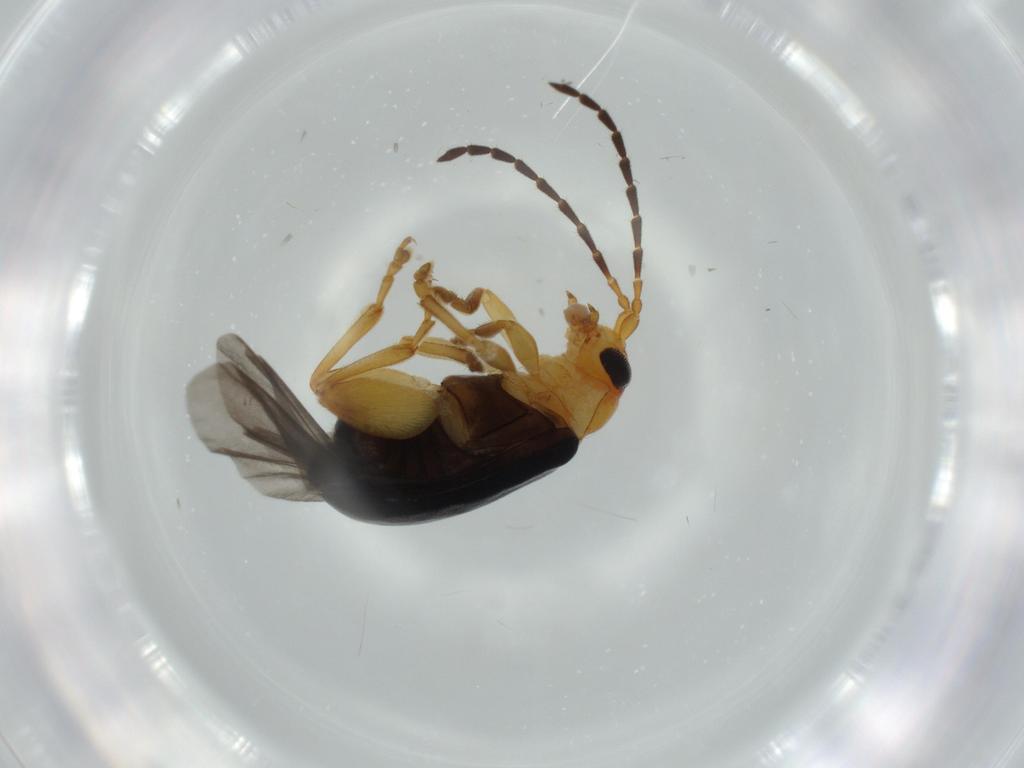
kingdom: Animalia
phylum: Arthropoda
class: Insecta
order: Coleoptera
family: Chrysomelidae
